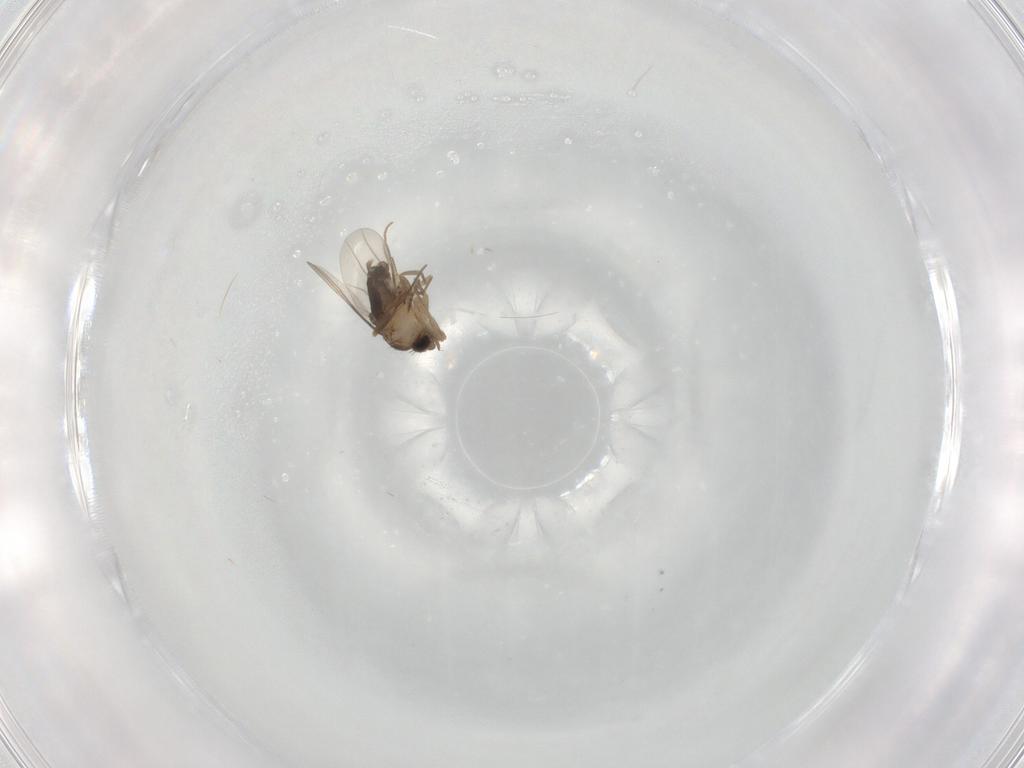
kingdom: Animalia
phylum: Arthropoda
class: Insecta
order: Diptera
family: Phoridae
